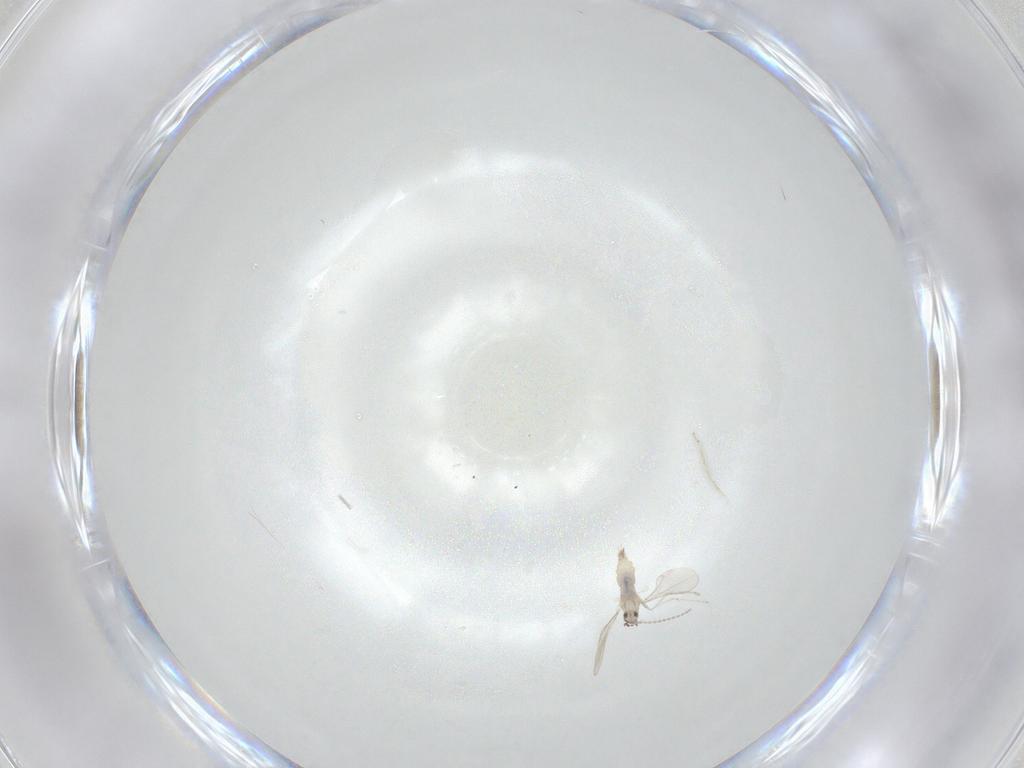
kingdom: Animalia
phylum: Arthropoda
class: Insecta
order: Diptera
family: Cecidomyiidae
